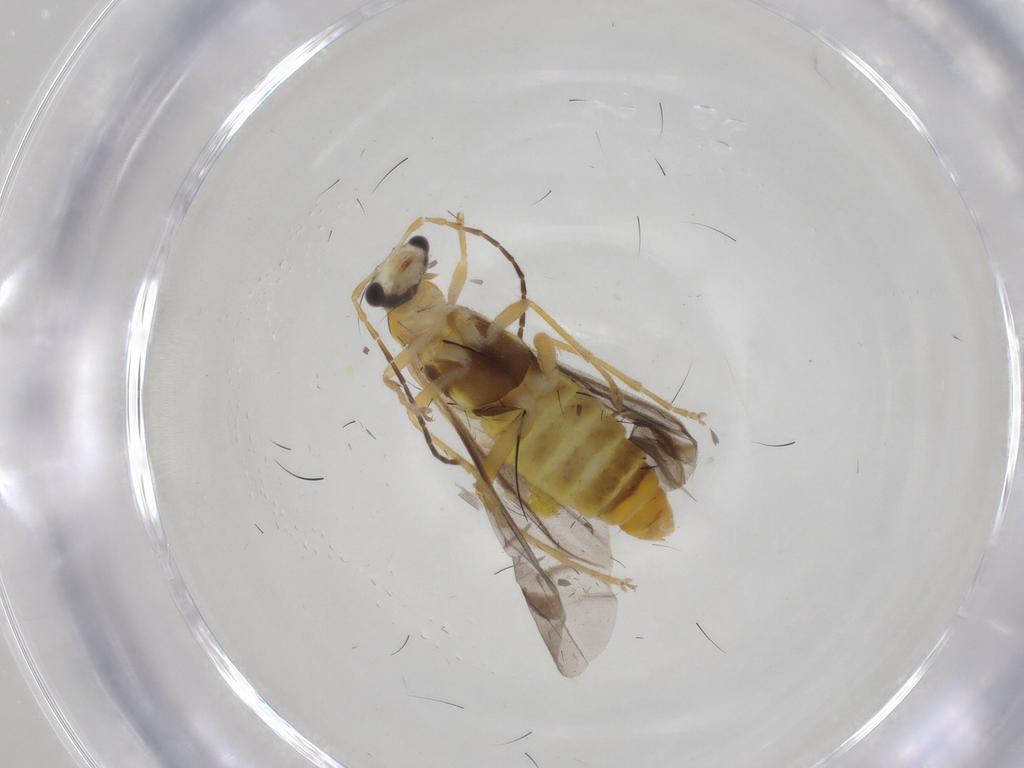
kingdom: Animalia
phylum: Arthropoda
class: Insecta
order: Coleoptera
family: Cantharidae
